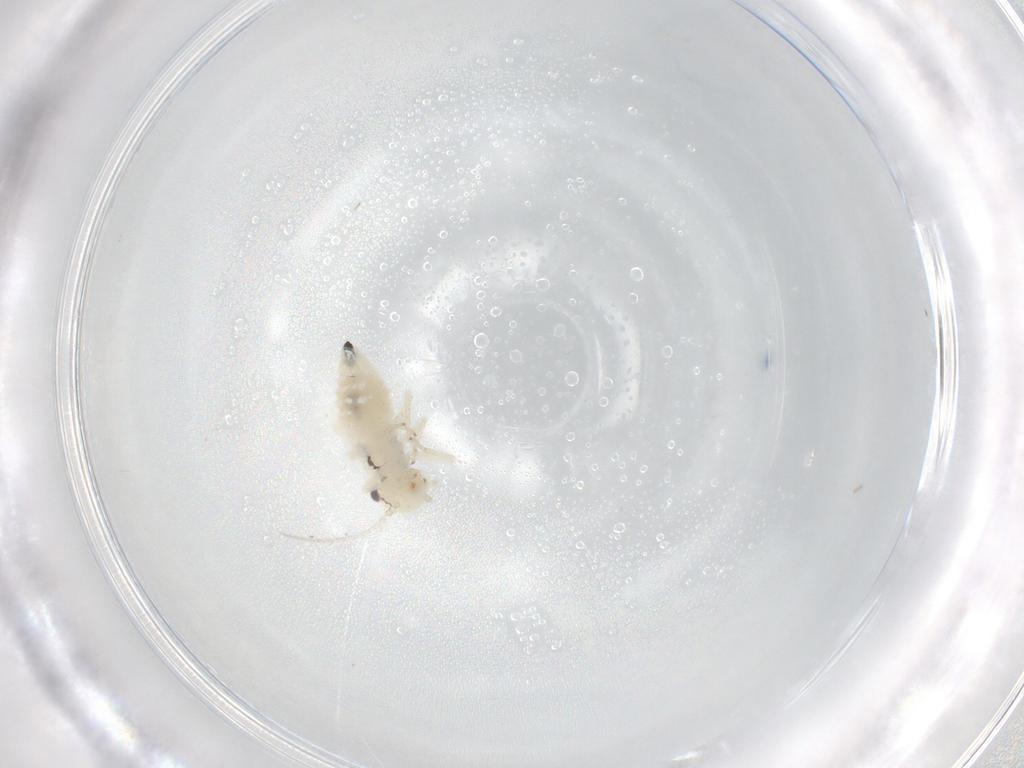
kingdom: Animalia
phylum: Arthropoda
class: Insecta
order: Psocodea
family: Caeciliusidae
